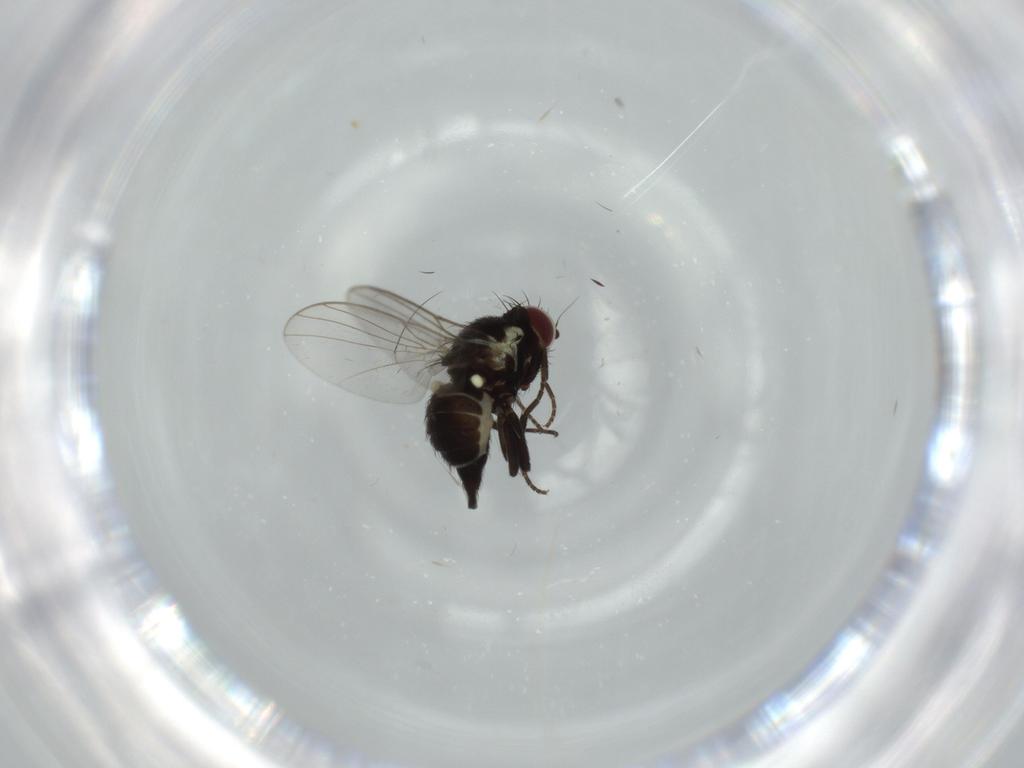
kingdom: Animalia
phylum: Arthropoda
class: Insecta
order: Diptera
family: Agromyzidae
